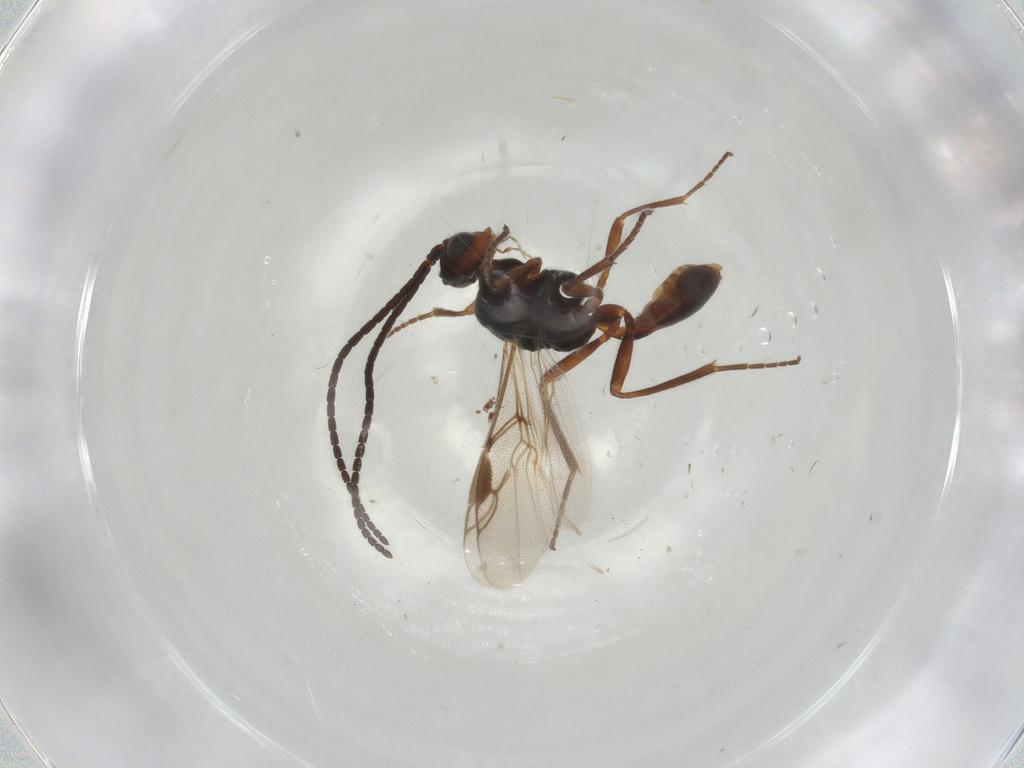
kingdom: Animalia
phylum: Arthropoda
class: Insecta
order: Hymenoptera
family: Braconidae
